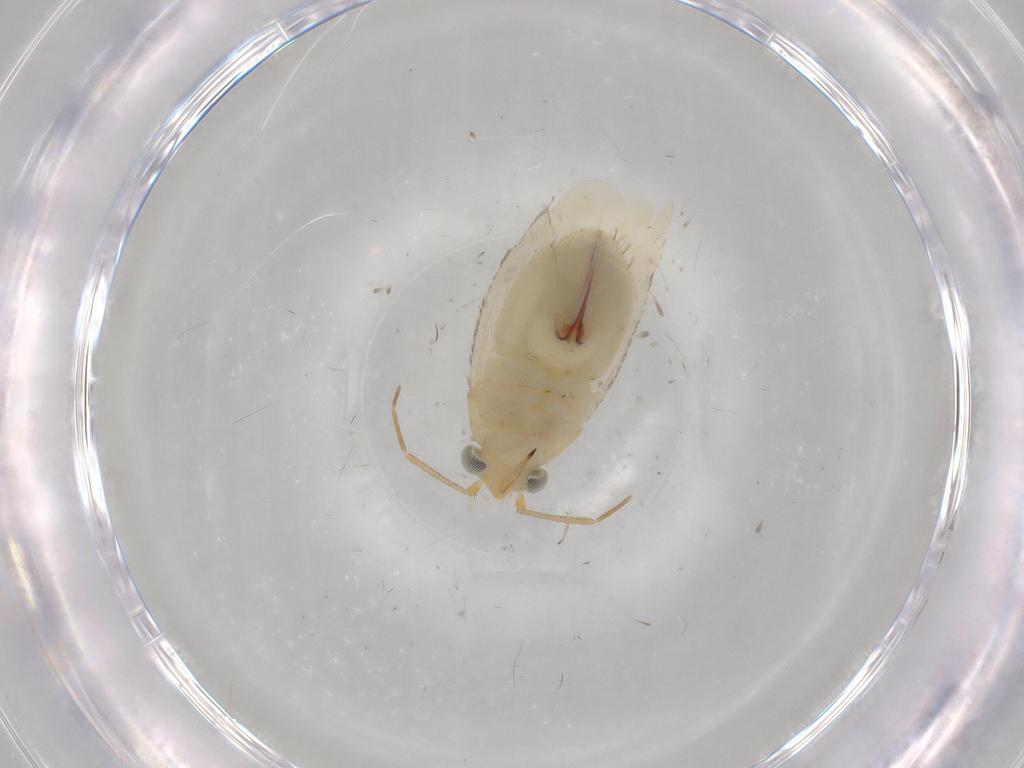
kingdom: Animalia
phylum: Arthropoda
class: Insecta
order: Hemiptera
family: Miridae
